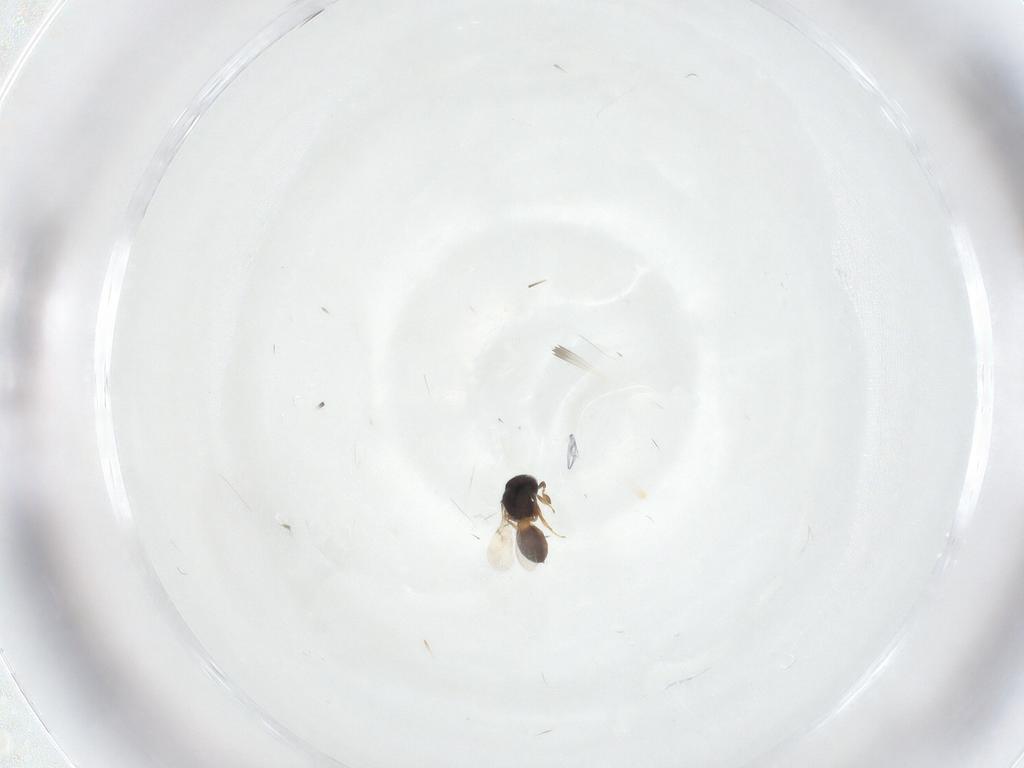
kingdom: Animalia
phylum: Arthropoda
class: Insecta
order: Hymenoptera
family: Scelionidae
